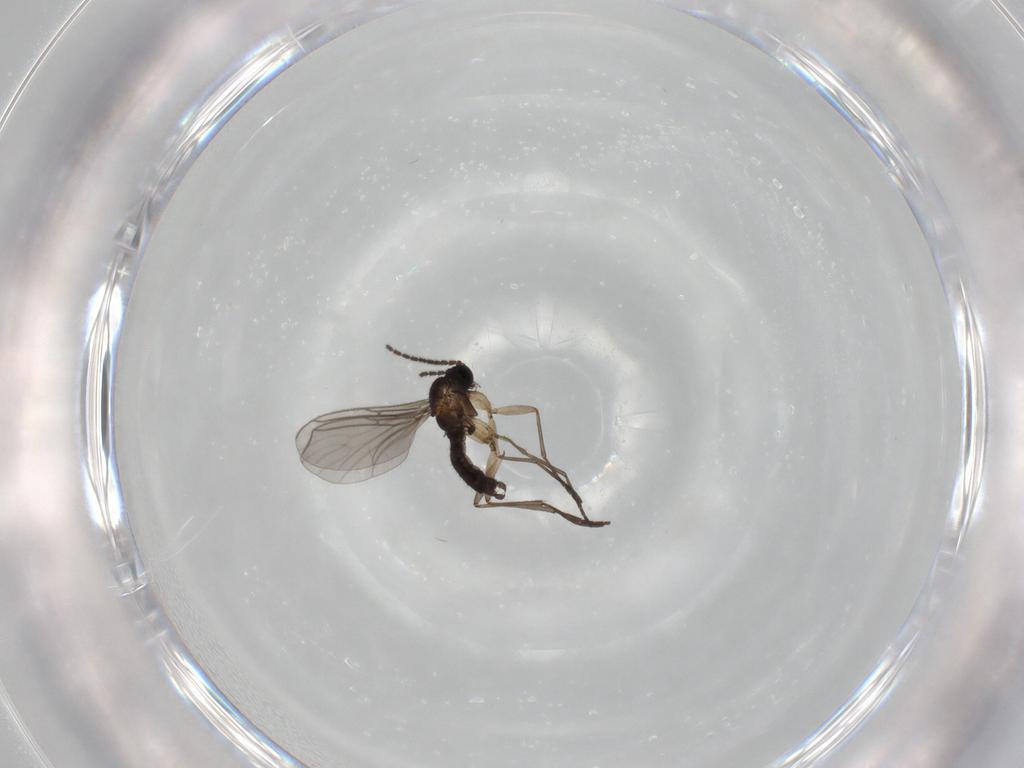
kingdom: Animalia
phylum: Arthropoda
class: Insecta
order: Diptera
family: Sciaridae
